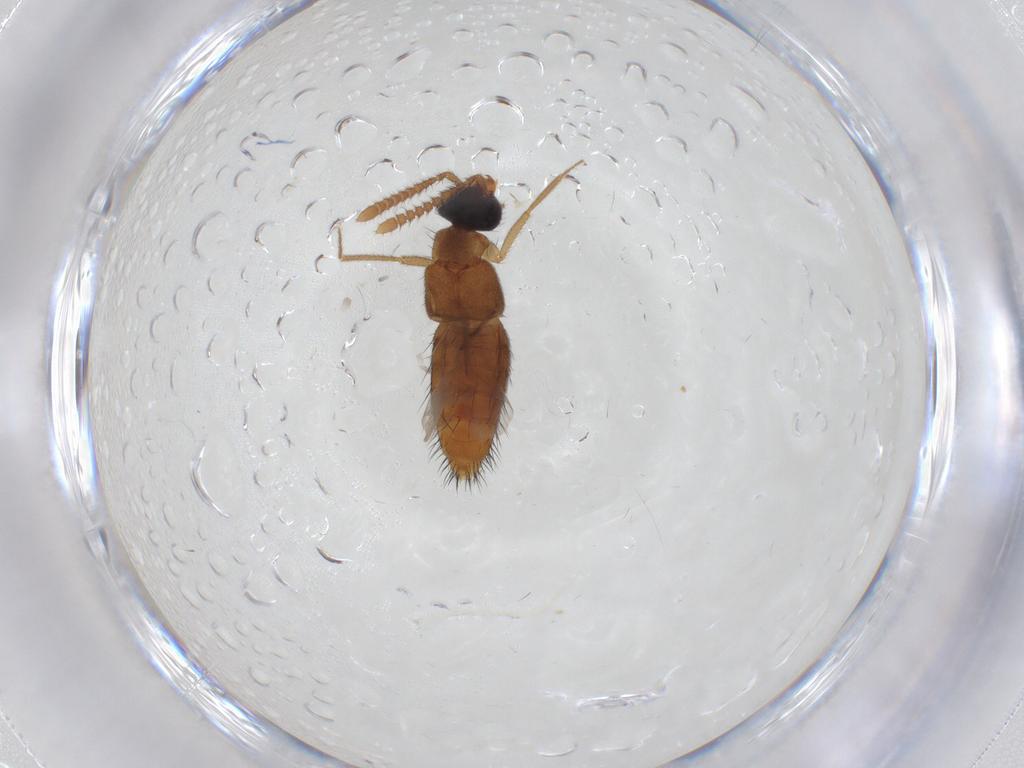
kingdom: Animalia
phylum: Arthropoda
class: Insecta
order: Coleoptera
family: Staphylinidae
